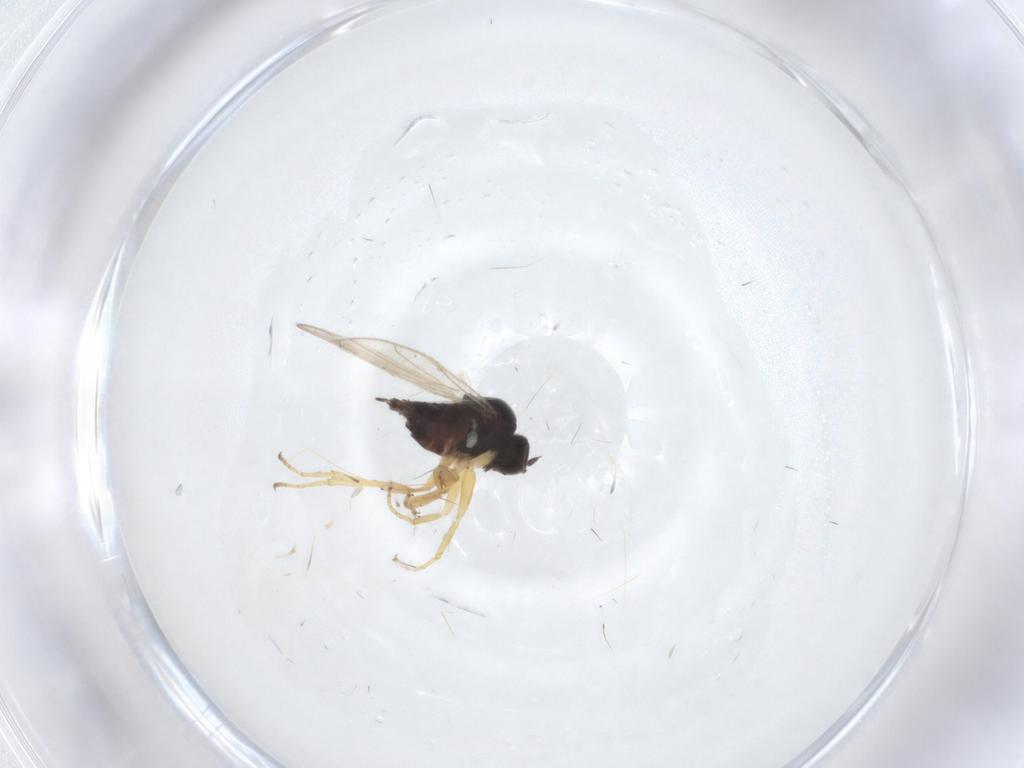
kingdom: Animalia
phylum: Arthropoda
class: Insecta
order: Diptera
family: Hybotidae
